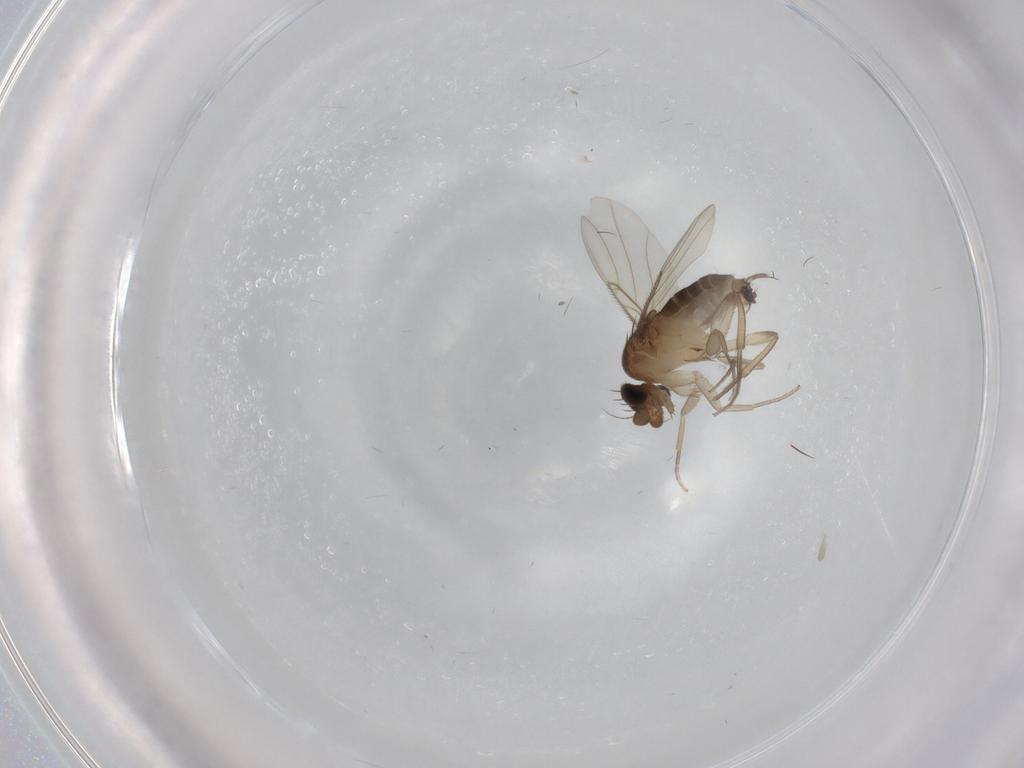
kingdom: Animalia
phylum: Arthropoda
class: Insecta
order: Diptera
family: Phoridae
